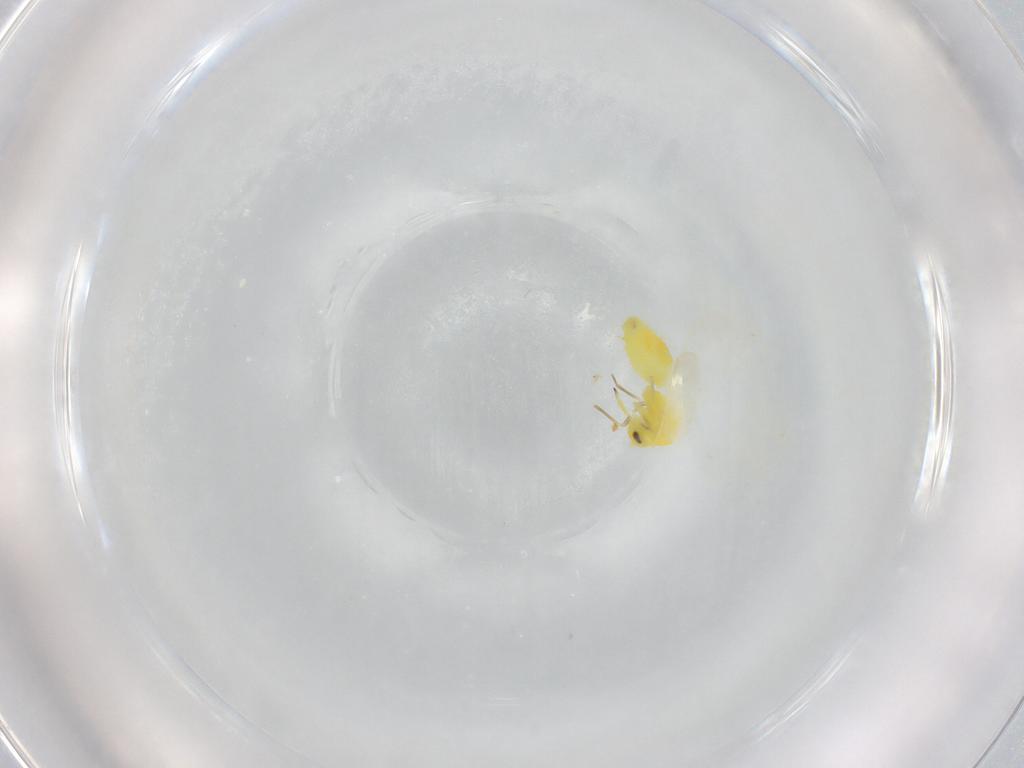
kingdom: Animalia
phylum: Arthropoda
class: Insecta
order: Hemiptera
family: Aleyrodidae
